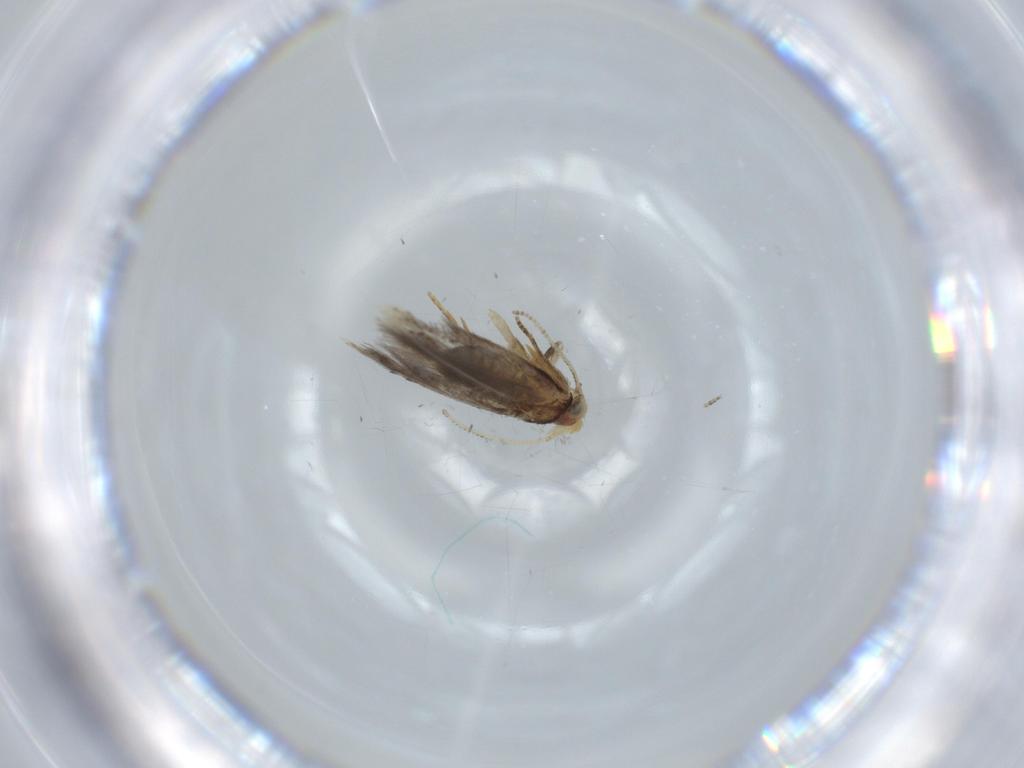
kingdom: Animalia
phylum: Arthropoda
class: Insecta
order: Lepidoptera
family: Nepticulidae
